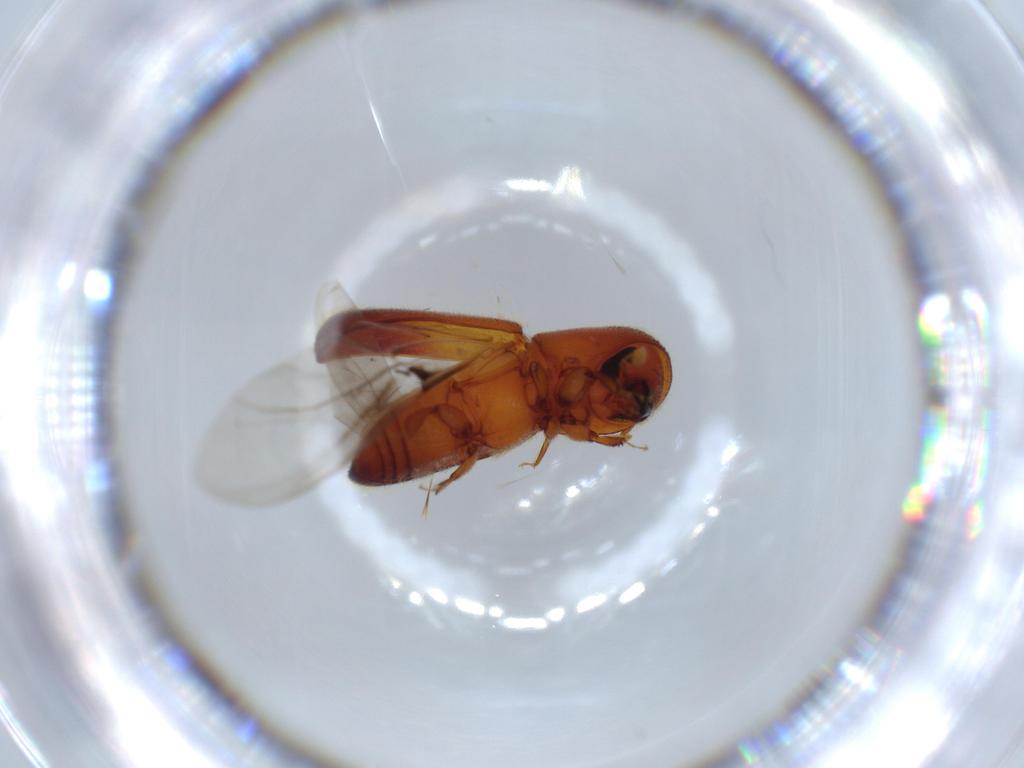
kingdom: Animalia
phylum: Arthropoda
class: Insecta
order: Coleoptera
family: Curculionidae
